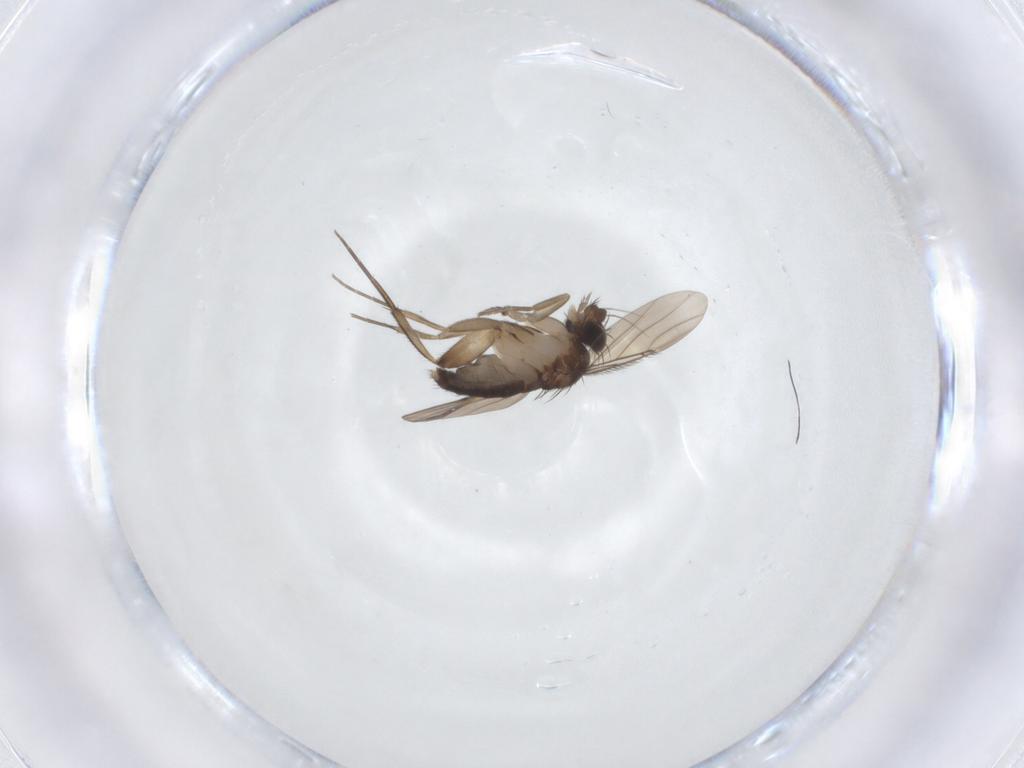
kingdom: Animalia
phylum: Arthropoda
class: Insecta
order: Diptera
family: Phoridae
